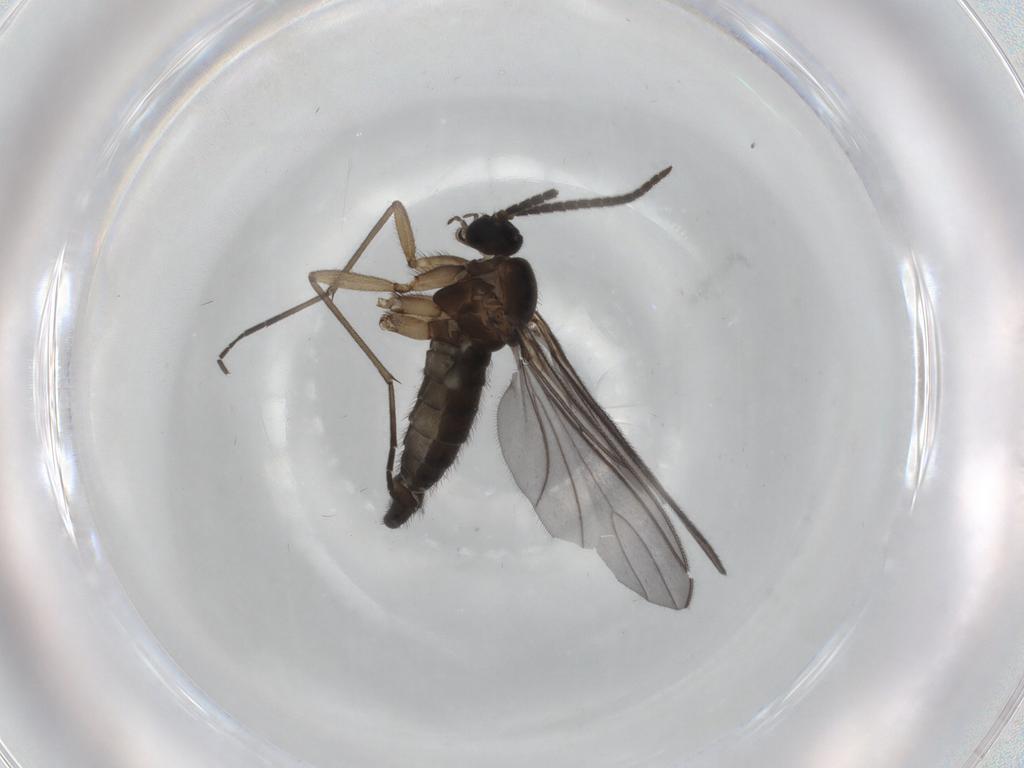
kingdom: Animalia
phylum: Arthropoda
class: Insecta
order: Diptera
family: Sciaridae
